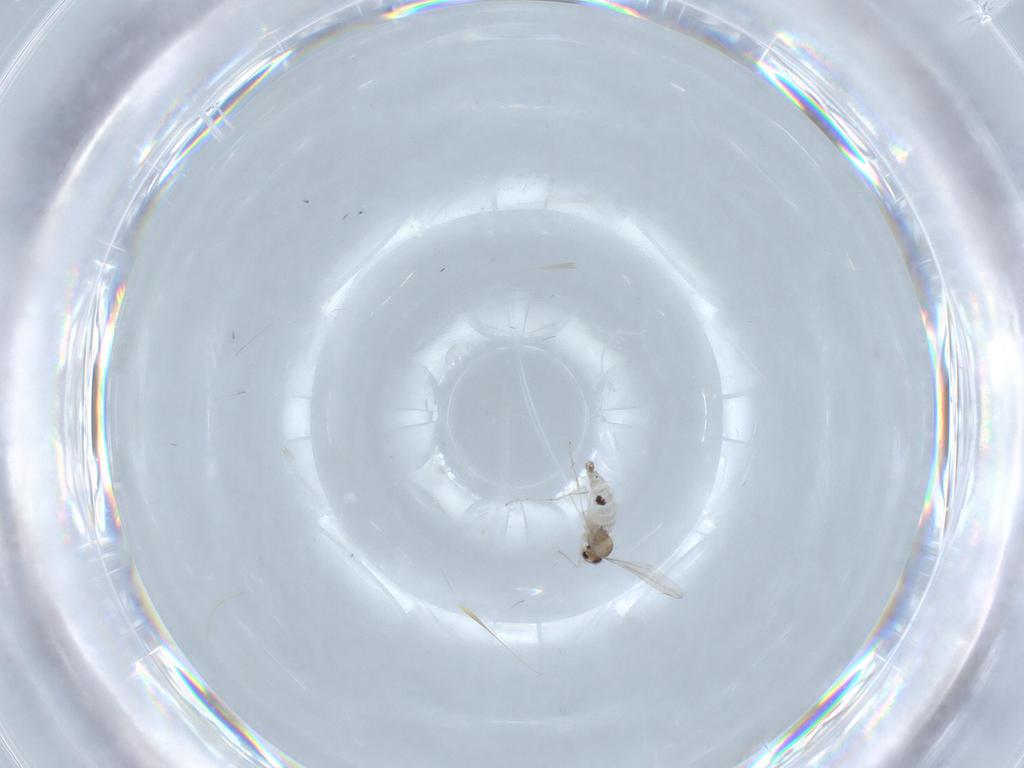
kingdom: Animalia
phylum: Arthropoda
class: Insecta
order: Diptera
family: Cecidomyiidae
